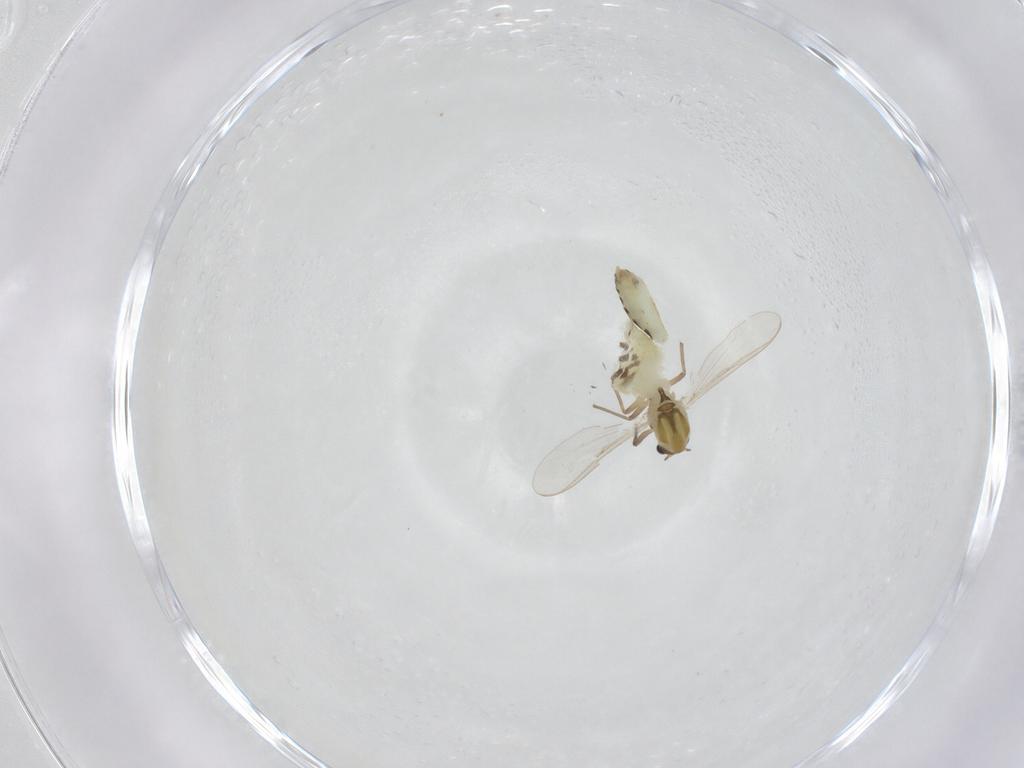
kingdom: Animalia
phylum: Arthropoda
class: Insecta
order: Diptera
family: Chironomidae
